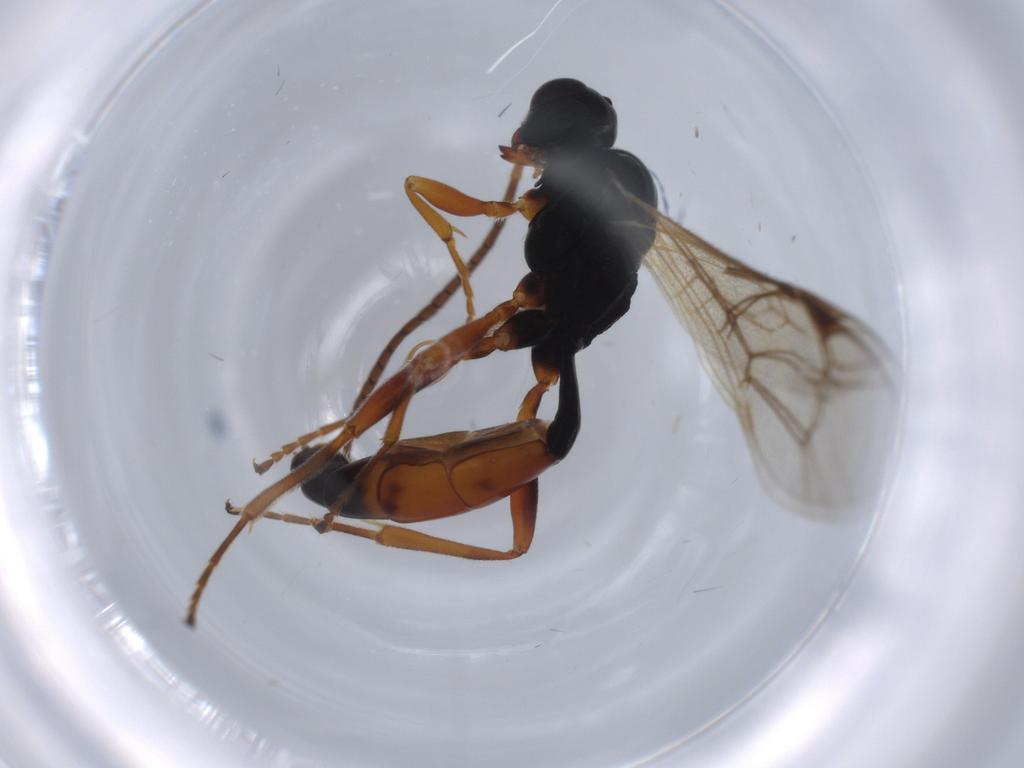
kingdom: Animalia
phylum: Arthropoda
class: Insecta
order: Hymenoptera
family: Ichneumonidae
